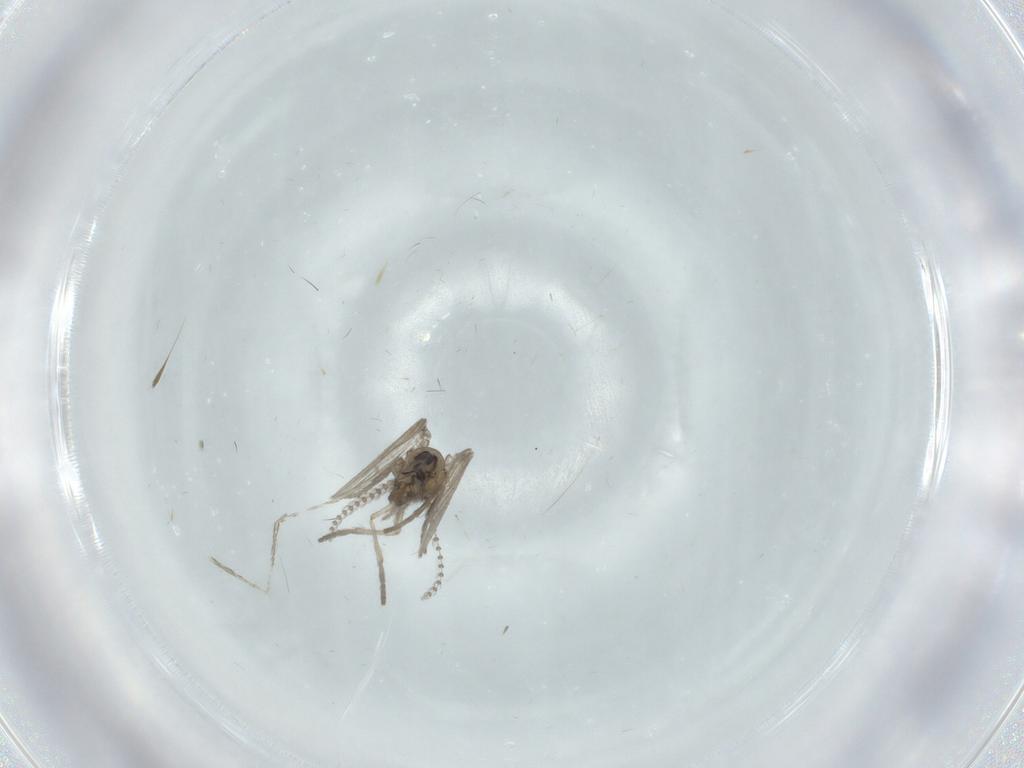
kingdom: Animalia
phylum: Arthropoda
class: Insecta
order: Diptera
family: Psychodidae
